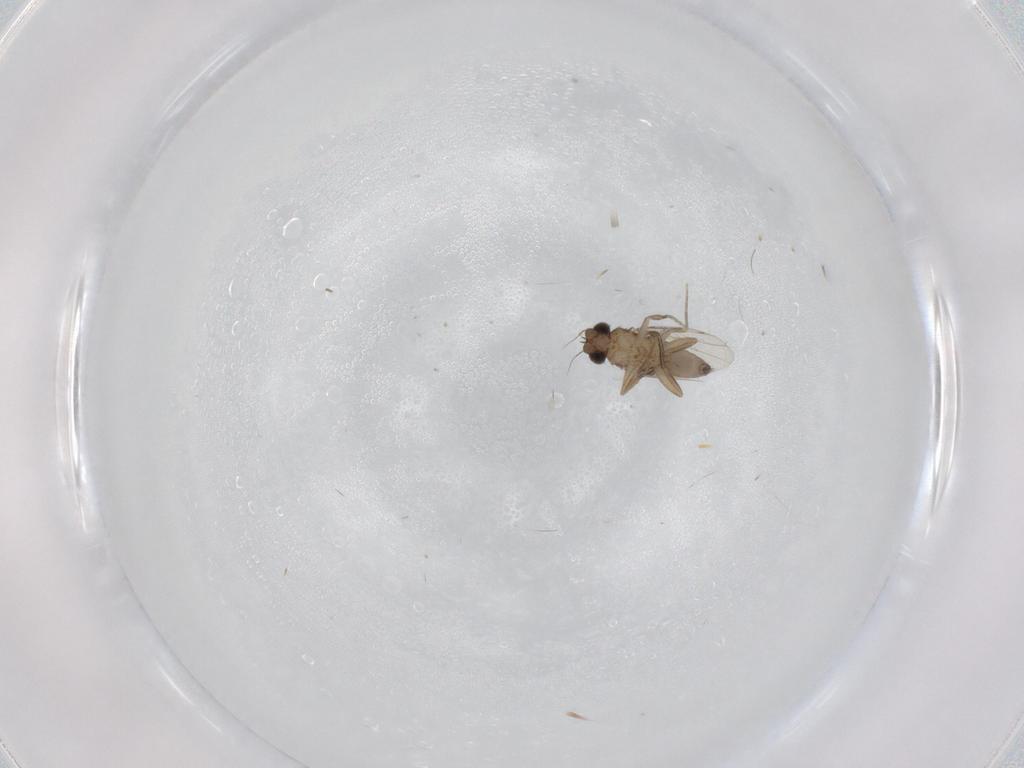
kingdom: Animalia
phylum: Arthropoda
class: Insecta
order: Diptera
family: Phoridae
